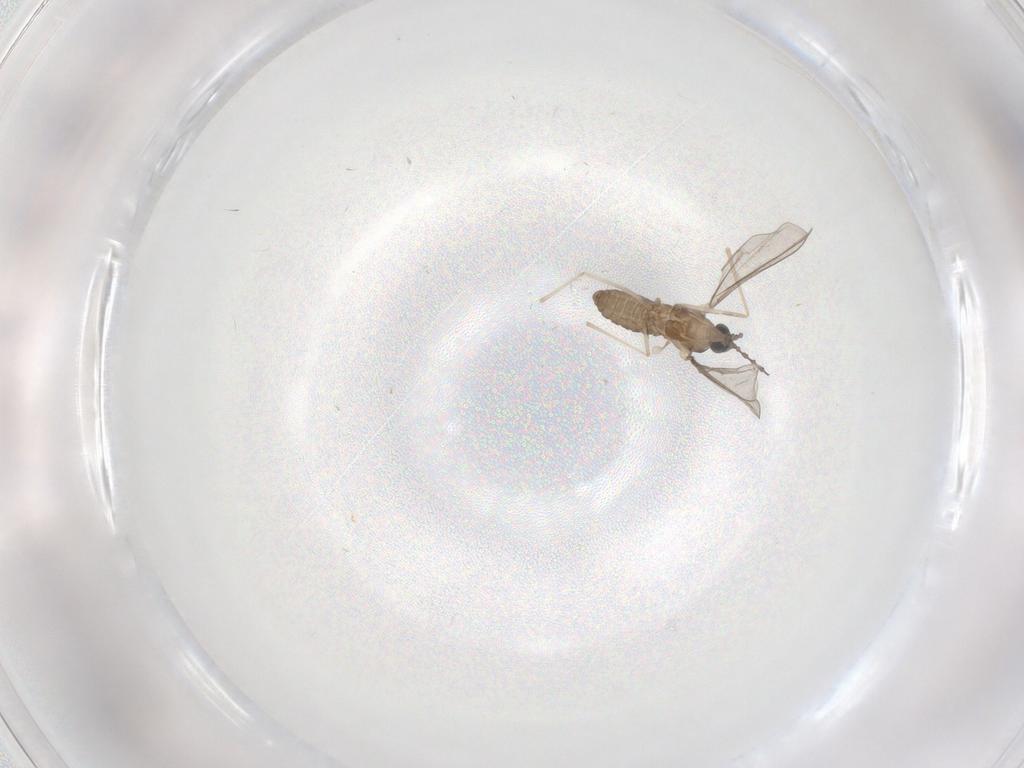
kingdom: Animalia
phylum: Arthropoda
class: Insecta
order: Diptera
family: Cecidomyiidae
